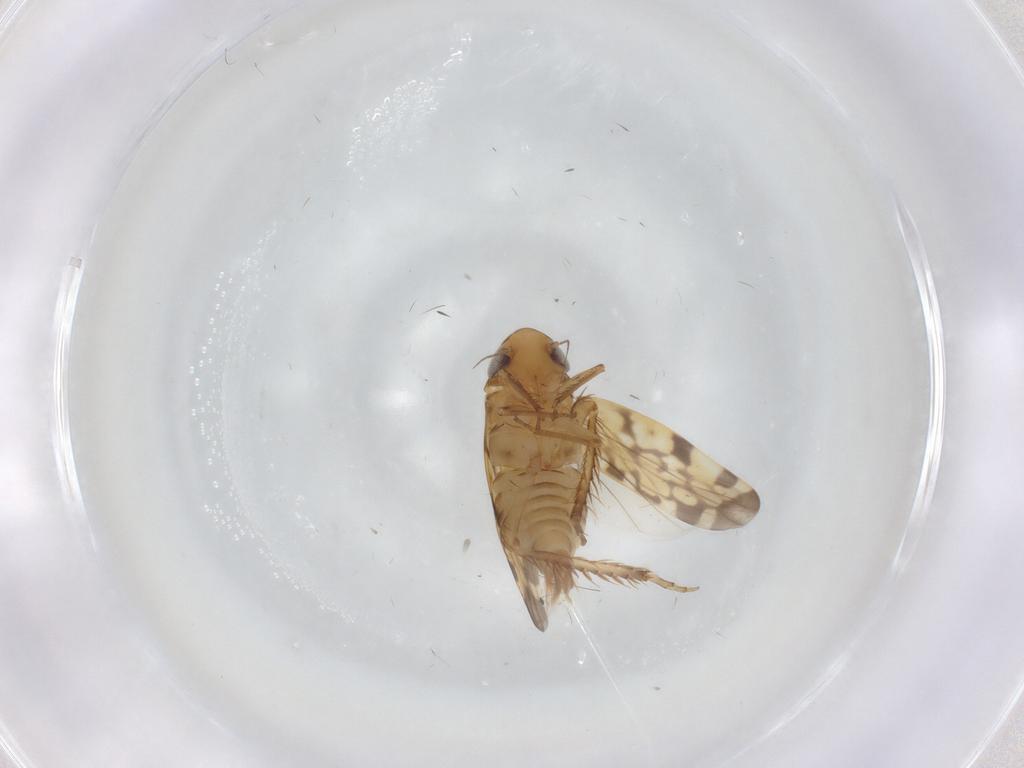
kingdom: Animalia
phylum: Arthropoda
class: Insecta
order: Hemiptera
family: Cicadellidae
